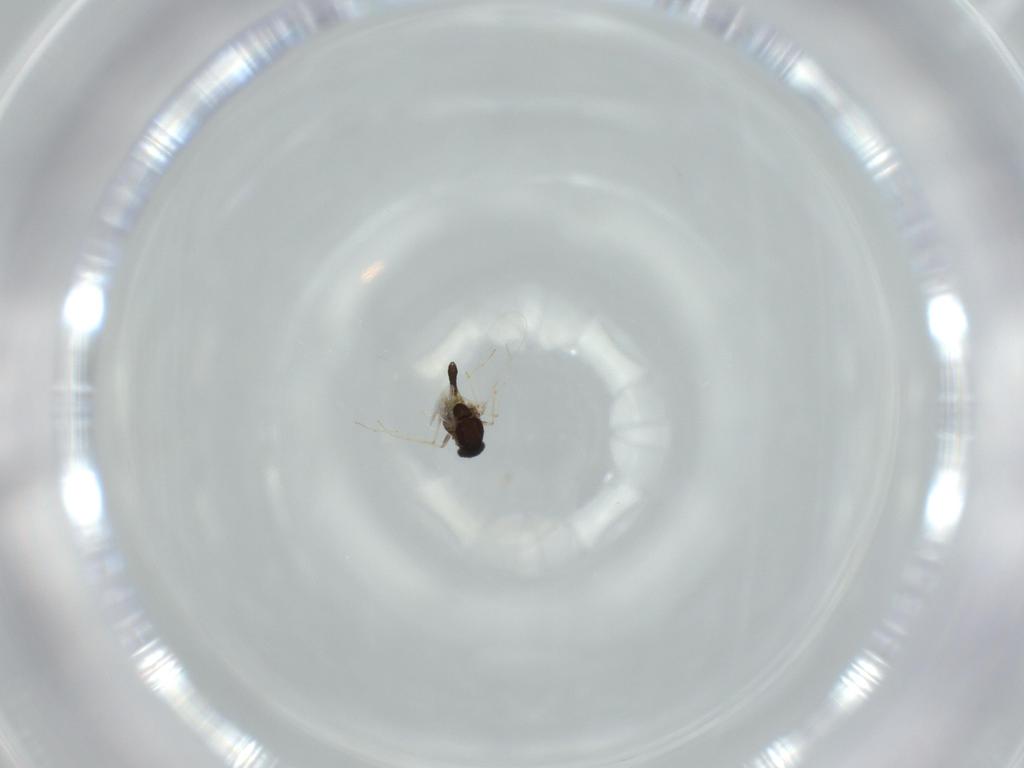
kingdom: Animalia
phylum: Arthropoda
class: Insecta
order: Diptera
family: Chironomidae
